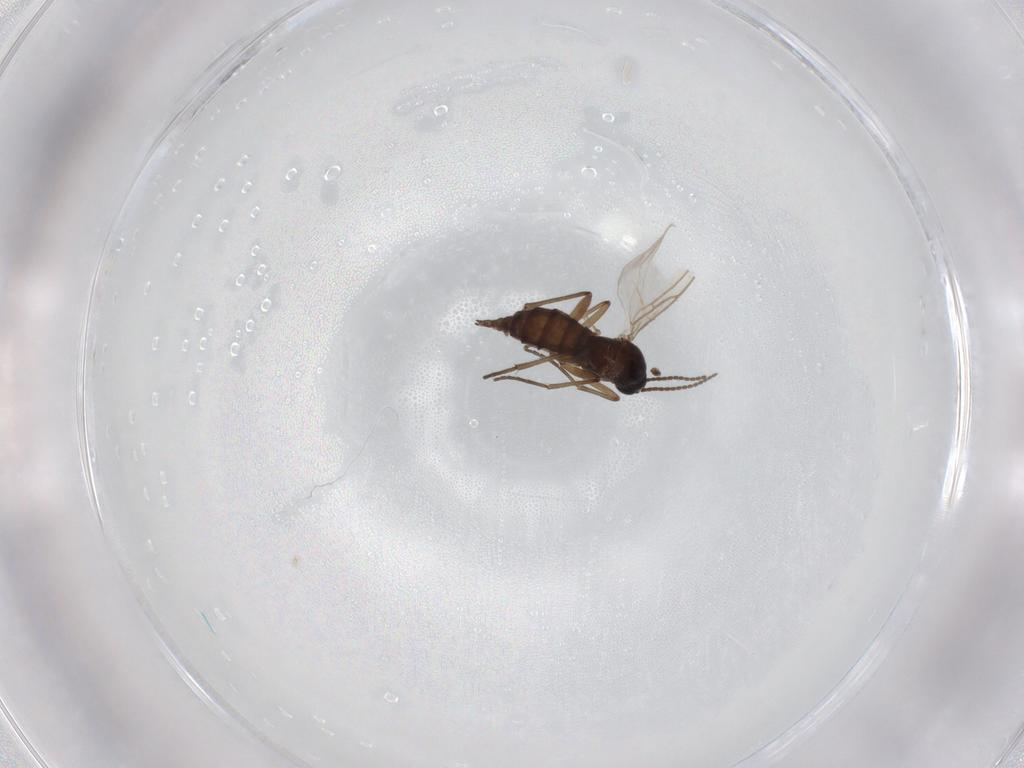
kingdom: Animalia
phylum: Arthropoda
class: Insecta
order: Diptera
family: Sciaridae
